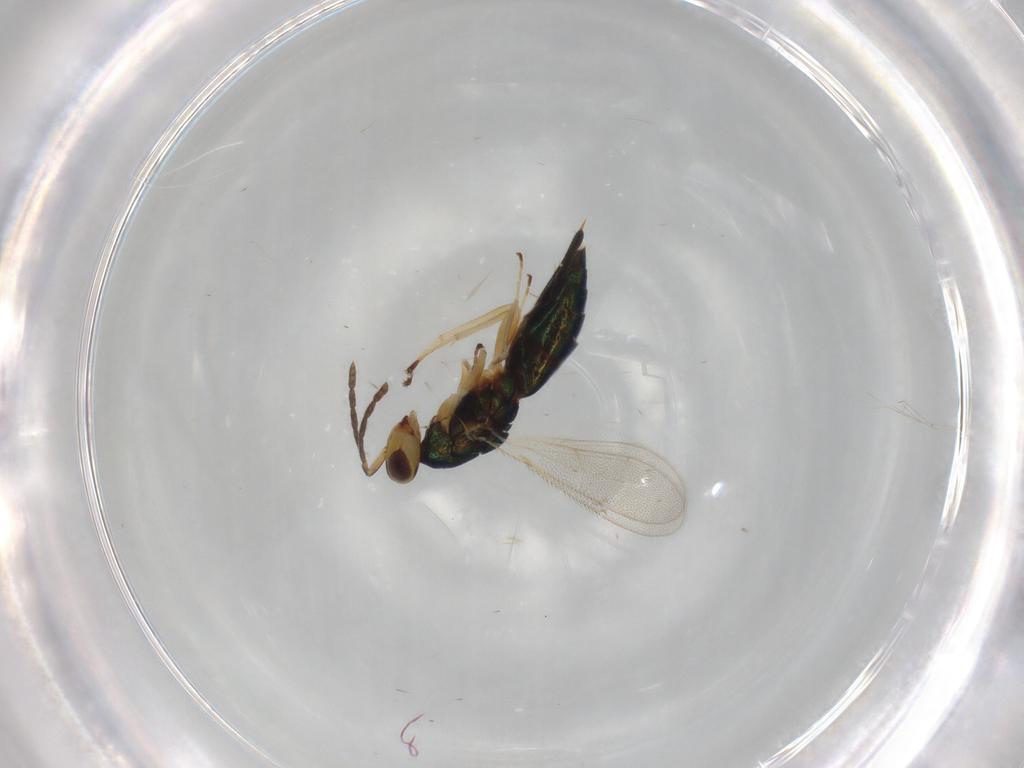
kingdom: Animalia
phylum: Arthropoda
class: Insecta
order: Hymenoptera
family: Eulophidae
